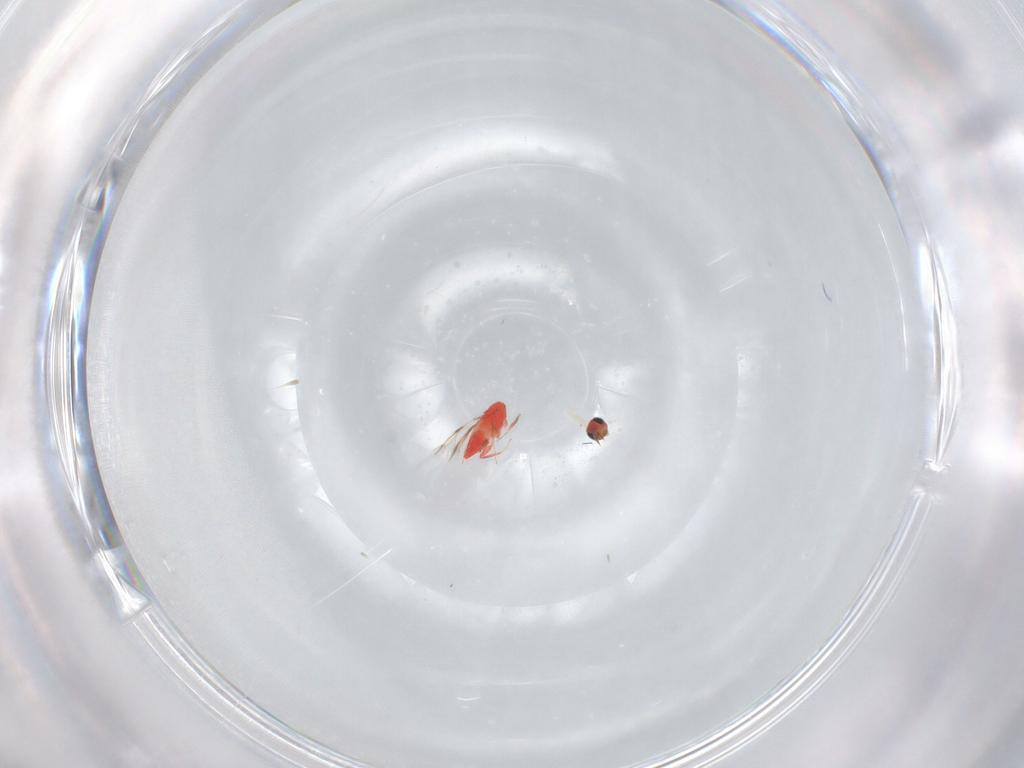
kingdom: Animalia
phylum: Arthropoda
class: Insecta
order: Hymenoptera
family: Trichogrammatidae
